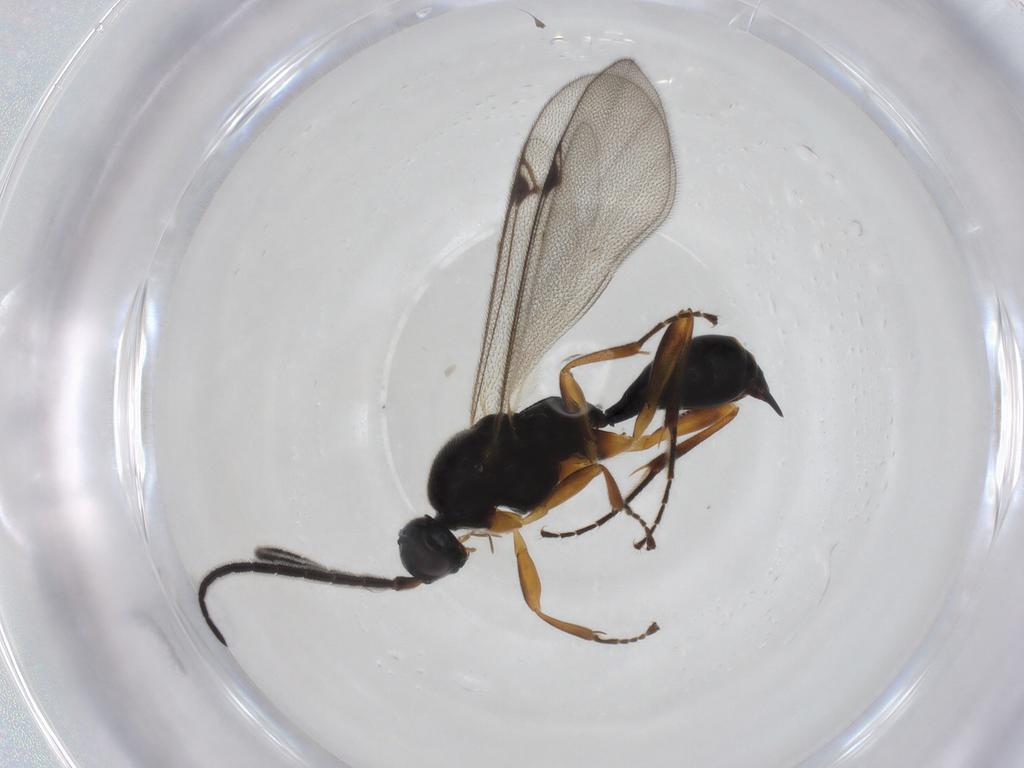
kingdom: Animalia
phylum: Arthropoda
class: Insecta
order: Hymenoptera
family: Proctotrupidae
